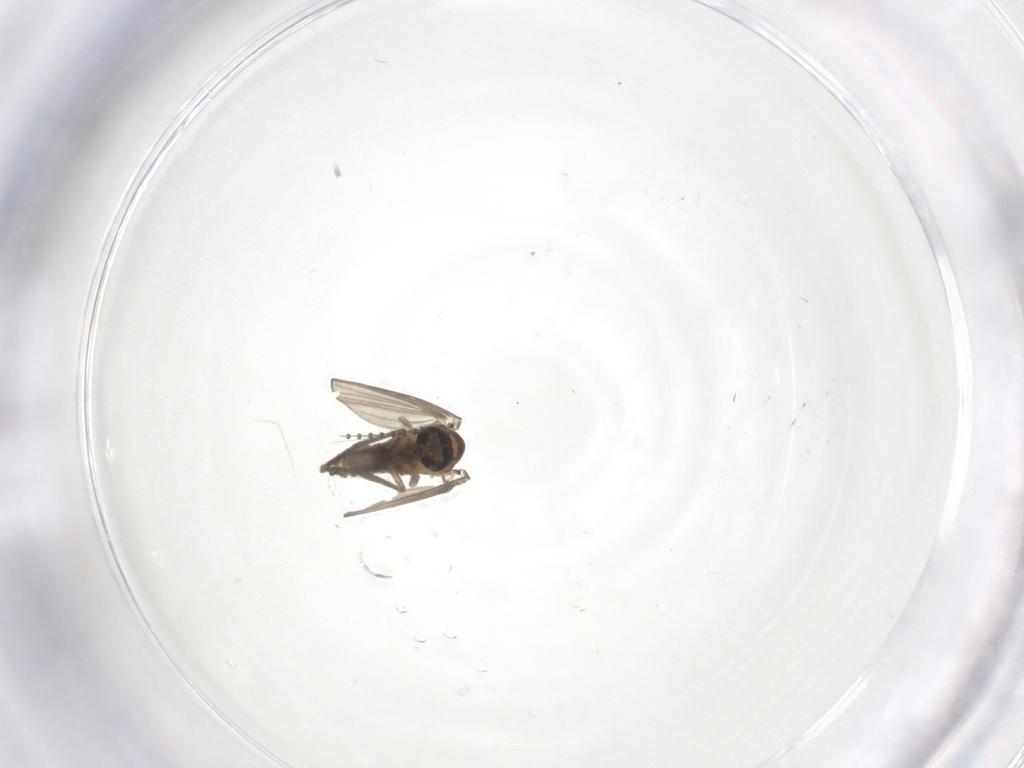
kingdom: Animalia
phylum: Arthropoda
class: Insecta
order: Diptera
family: Psychodidae
